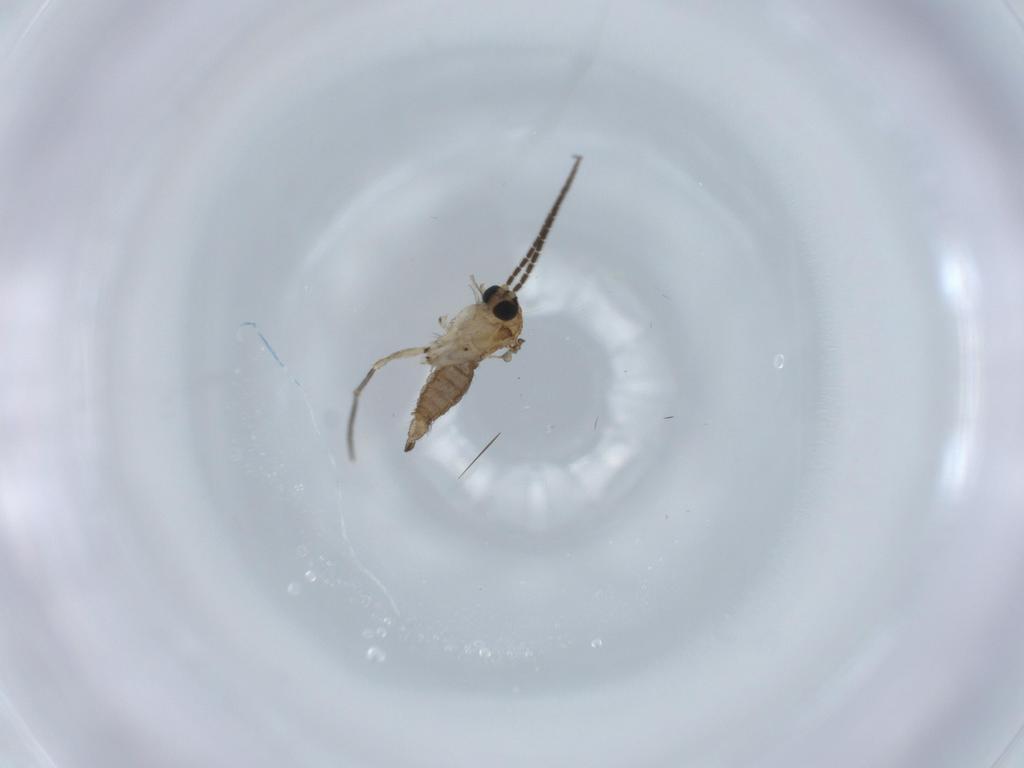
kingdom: Animalia
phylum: Arthropoda
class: Insecta
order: Diptera
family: Sciaridae
